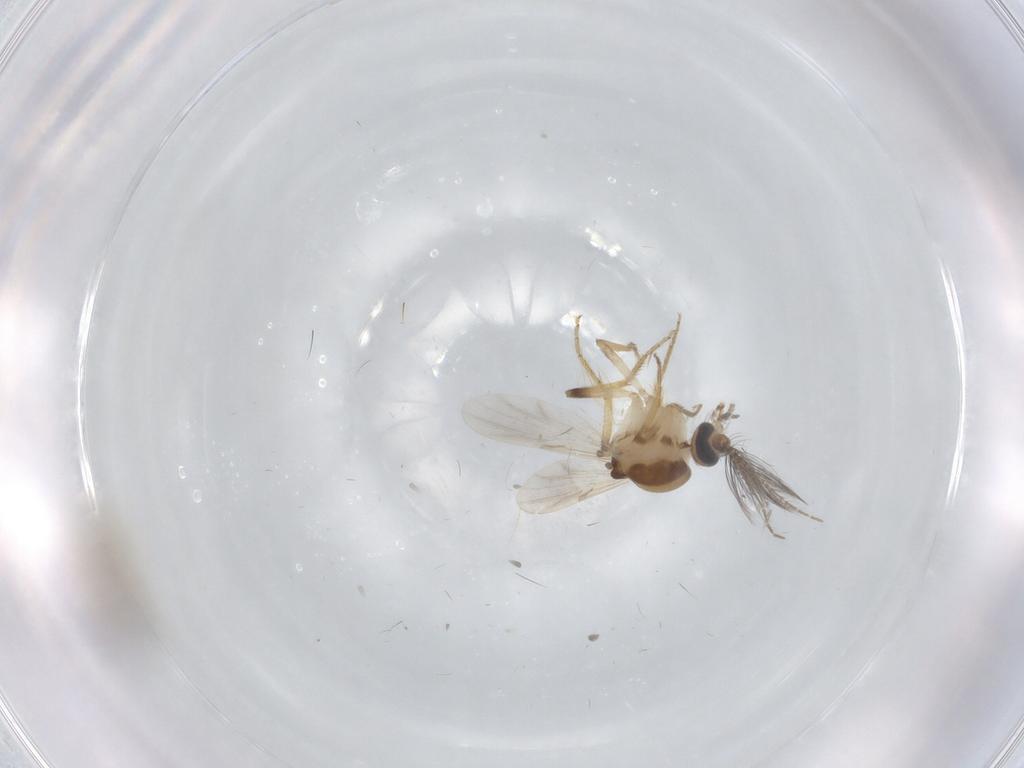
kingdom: Animalia
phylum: Arthropoda
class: Insecta
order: Diptera
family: Ceratopogonidae
